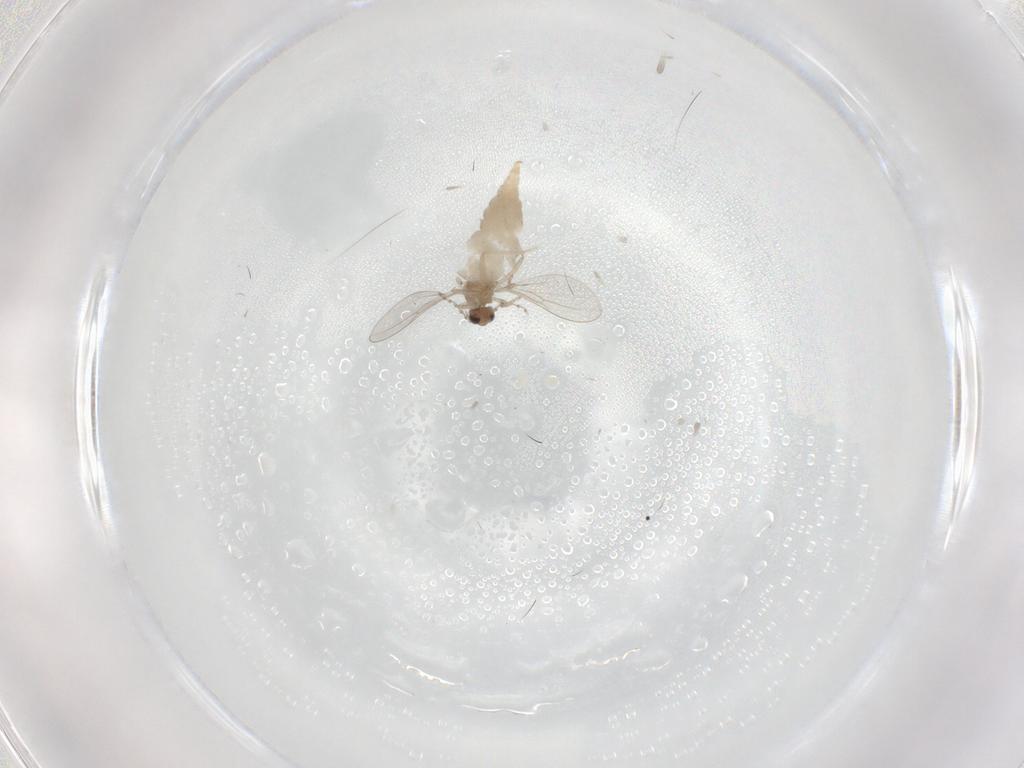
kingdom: Animalia
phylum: Arthropoda
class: Insecta
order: Diptera
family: Cecidomyiidae
